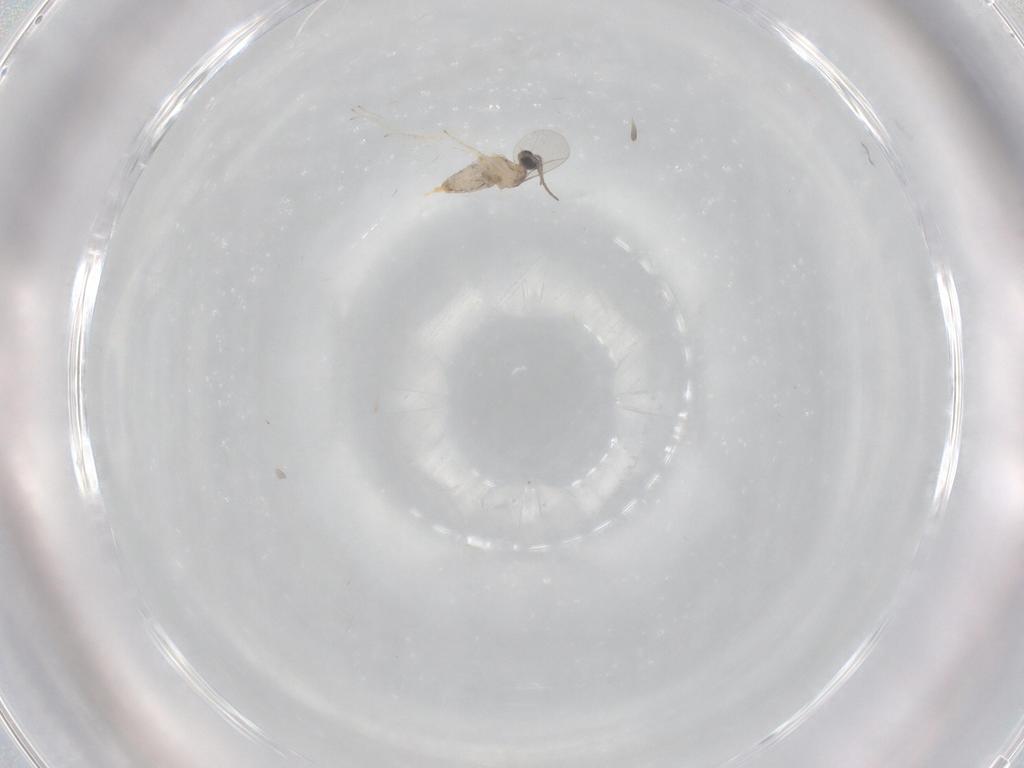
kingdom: Animalia
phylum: Arthropoda
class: Insecta
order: Diptera
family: Cecidomyiidae
